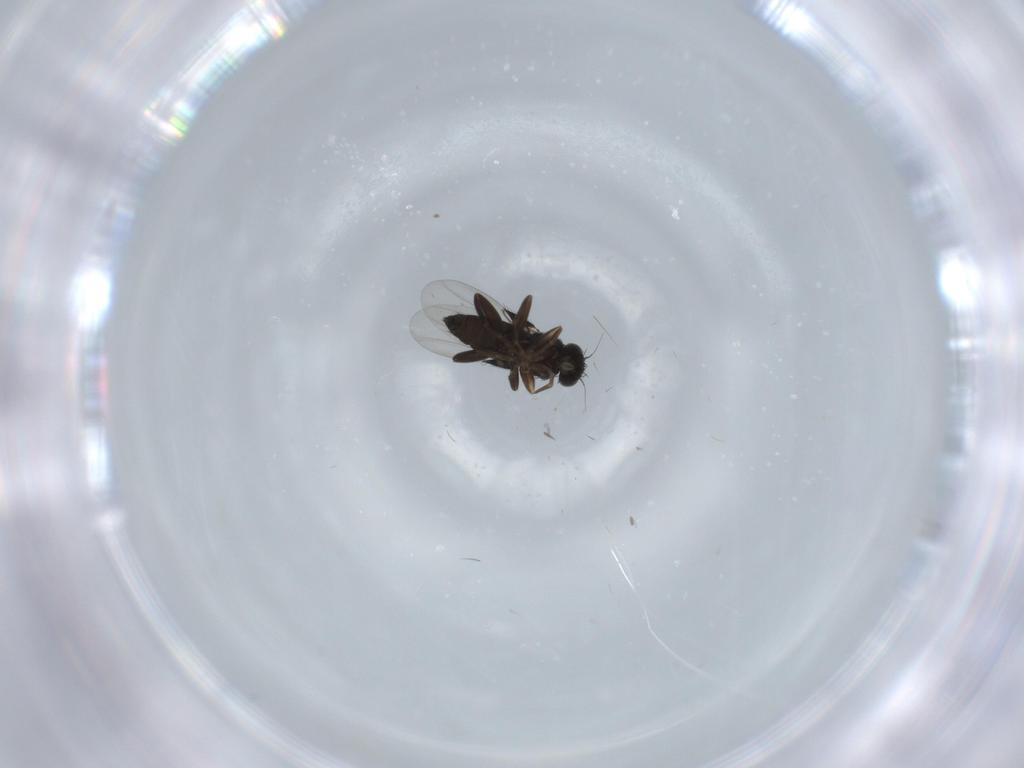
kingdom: Animalia
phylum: Arthropoda
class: Insecta
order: Diptera
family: Phoridae
